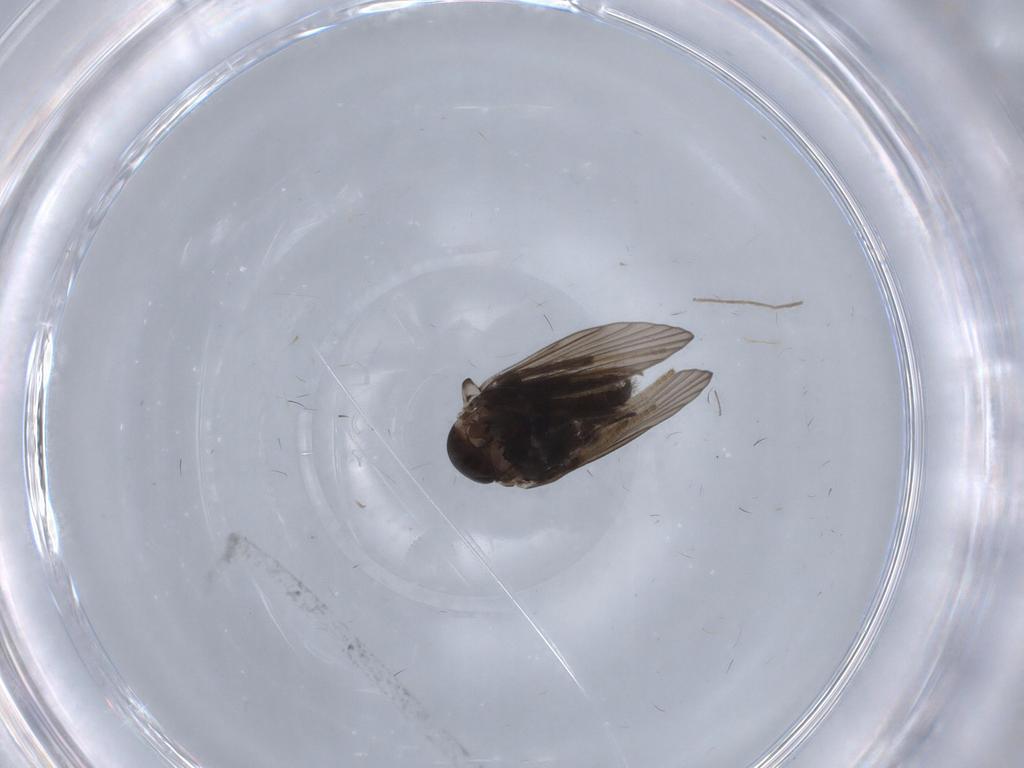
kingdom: Animalia
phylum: Arthropoda
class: Insecta
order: Diptera
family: Psychodidae
